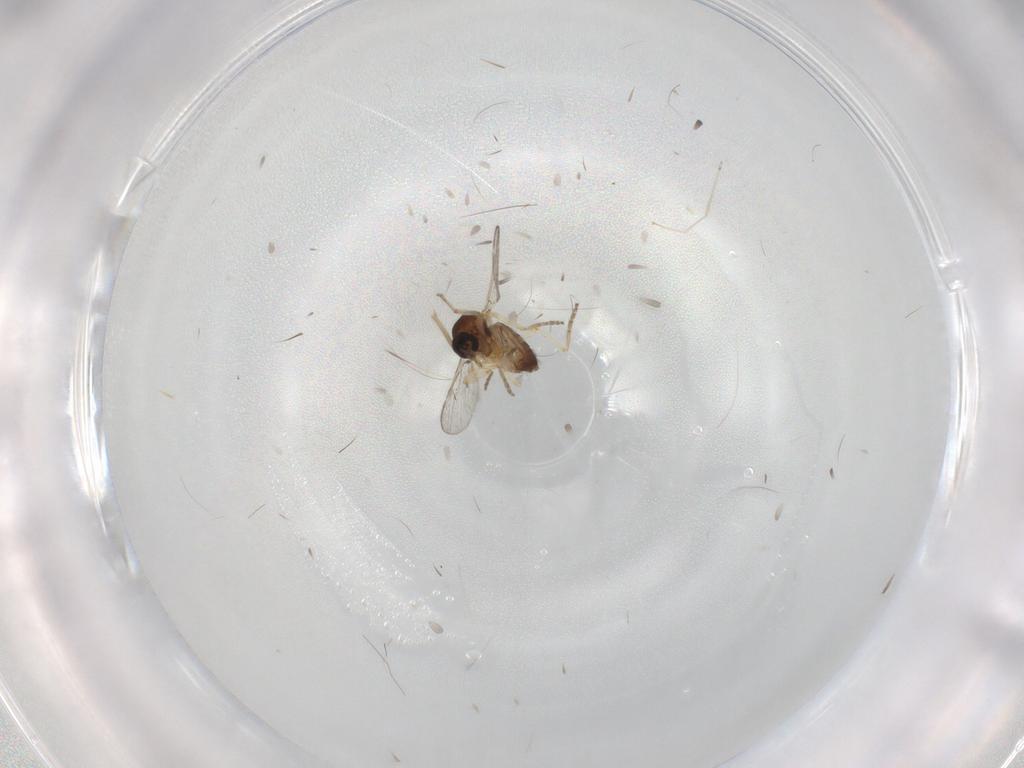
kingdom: Animalia
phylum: Arthropoda
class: Insecta
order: Diptera
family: Ceratopogonidae
